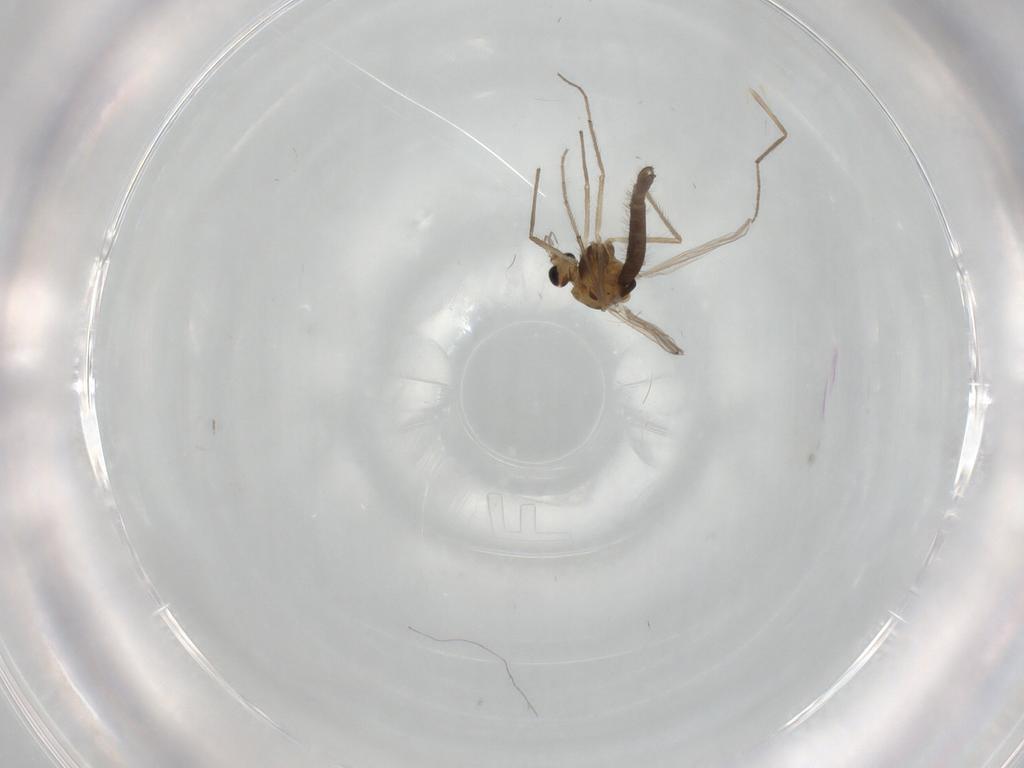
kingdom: Animalia
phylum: Arthropoda
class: Insecta
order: Diptera
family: Chironomidae
